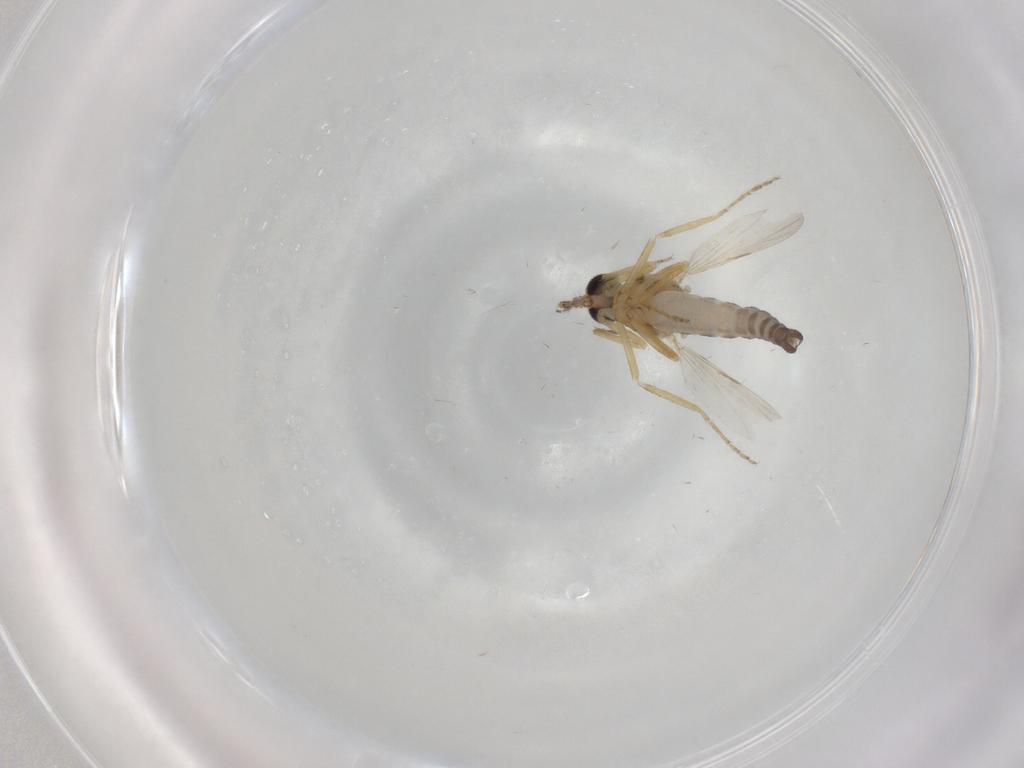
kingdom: Animalia
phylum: Arthropoda
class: Insecta
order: Diptera
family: Ceratopogonidae
